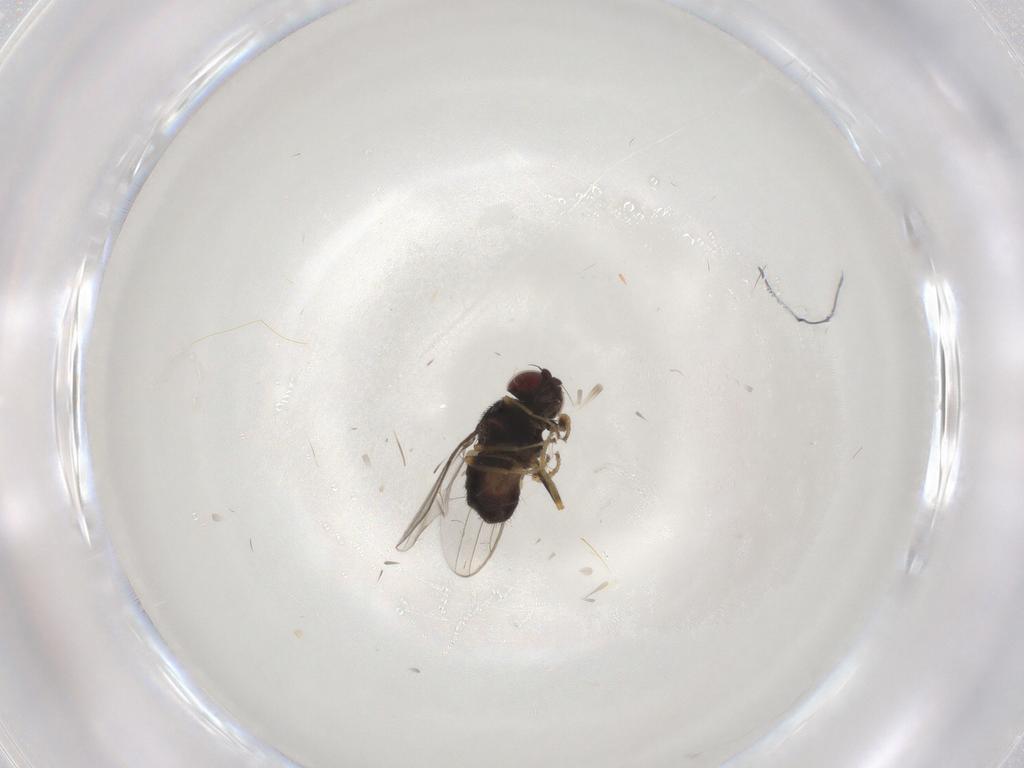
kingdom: Animalia
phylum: Arthropoda
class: Insecta
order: Diptera
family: Chloropidae
